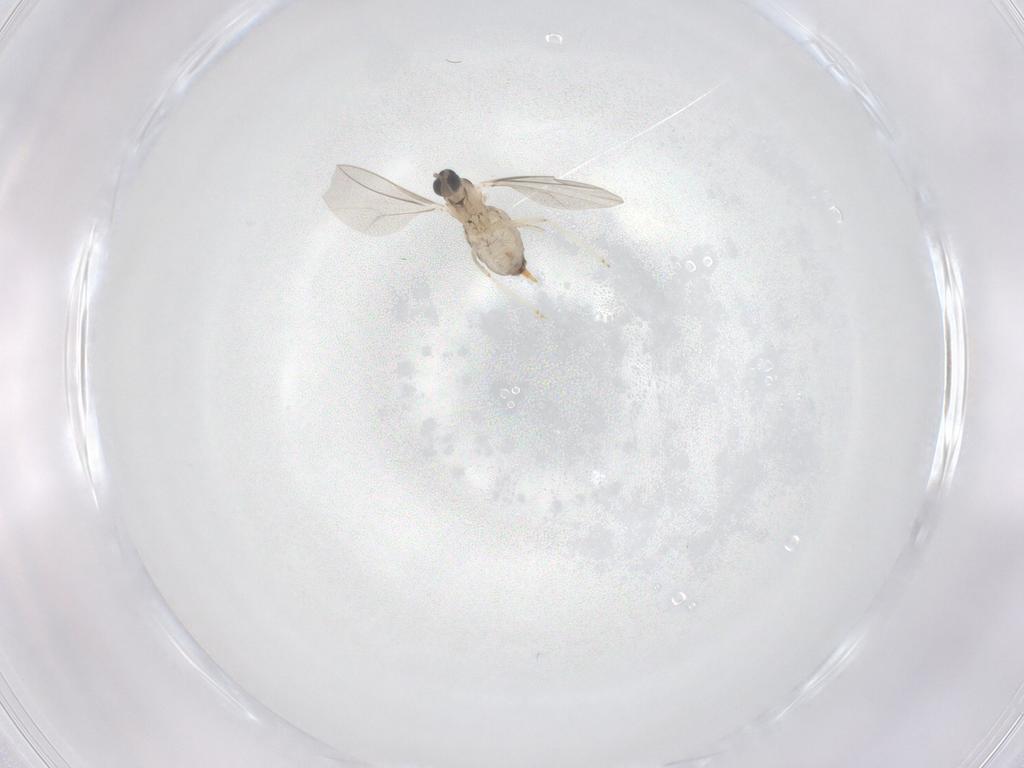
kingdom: Animalia
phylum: Arthropoda
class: Insecta
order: Diptera
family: Cecidomyiidae
